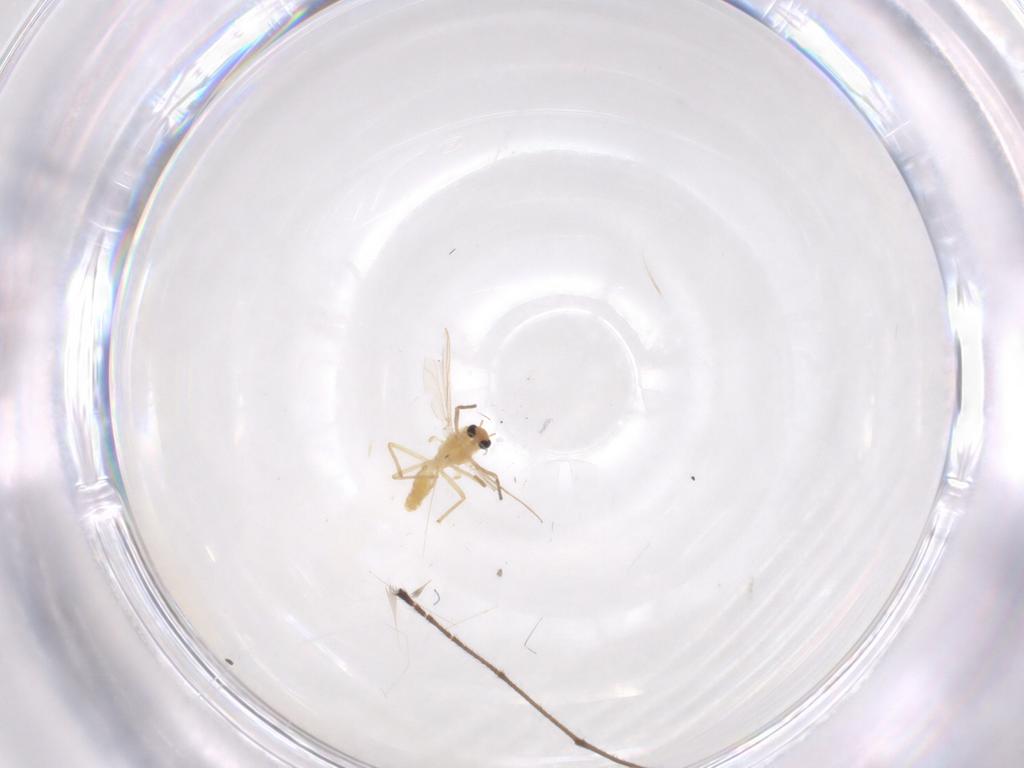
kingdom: Animalia
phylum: Arthropoda
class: Insecta
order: Diptera
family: Chironomidae
